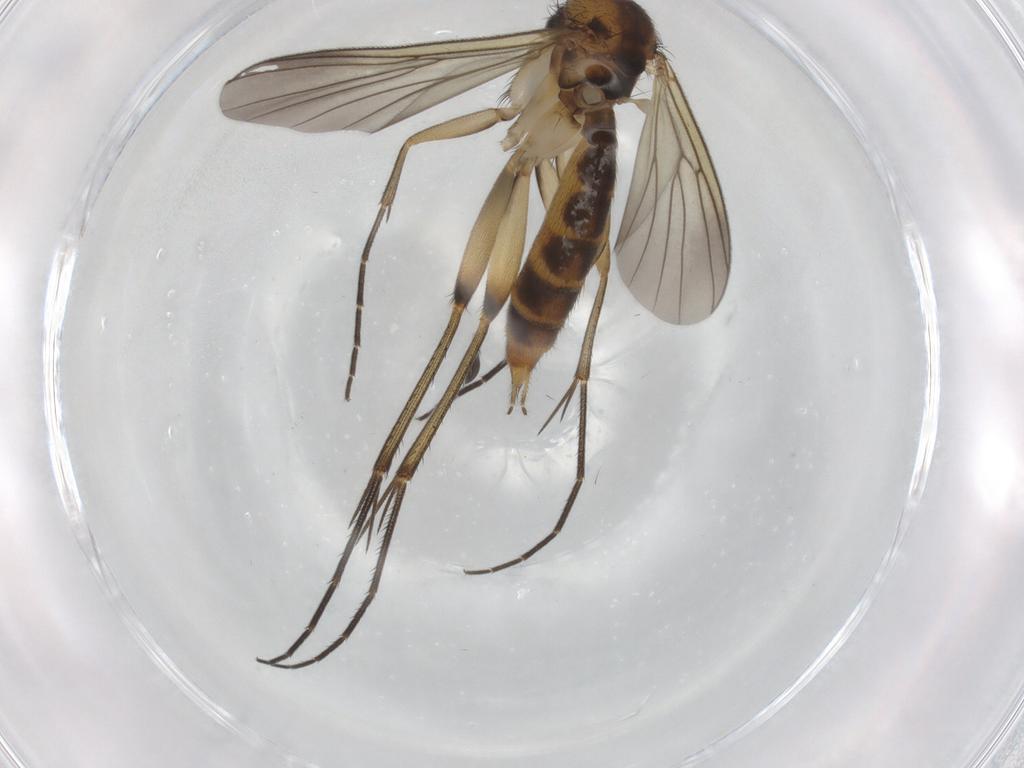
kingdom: Animalia
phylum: Arthropoda
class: Insecta
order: Diptera
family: Mycetophilidae
